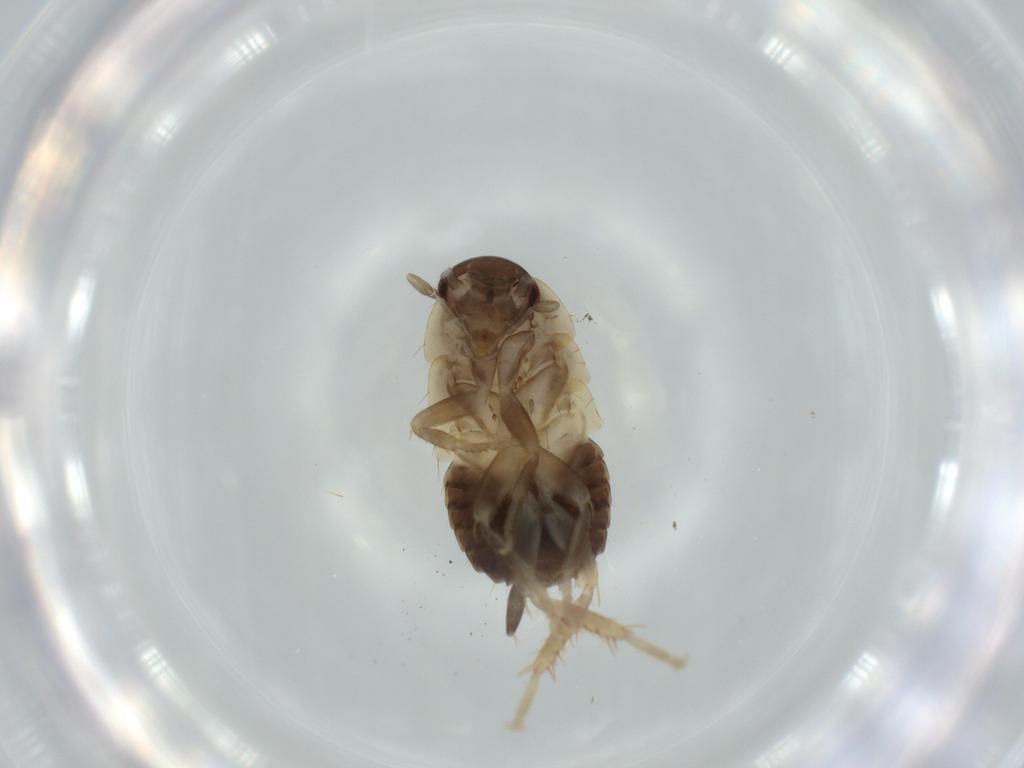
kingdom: Animalia
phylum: Arthropoda
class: Insecta
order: Blattodea
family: Ectobiidae
